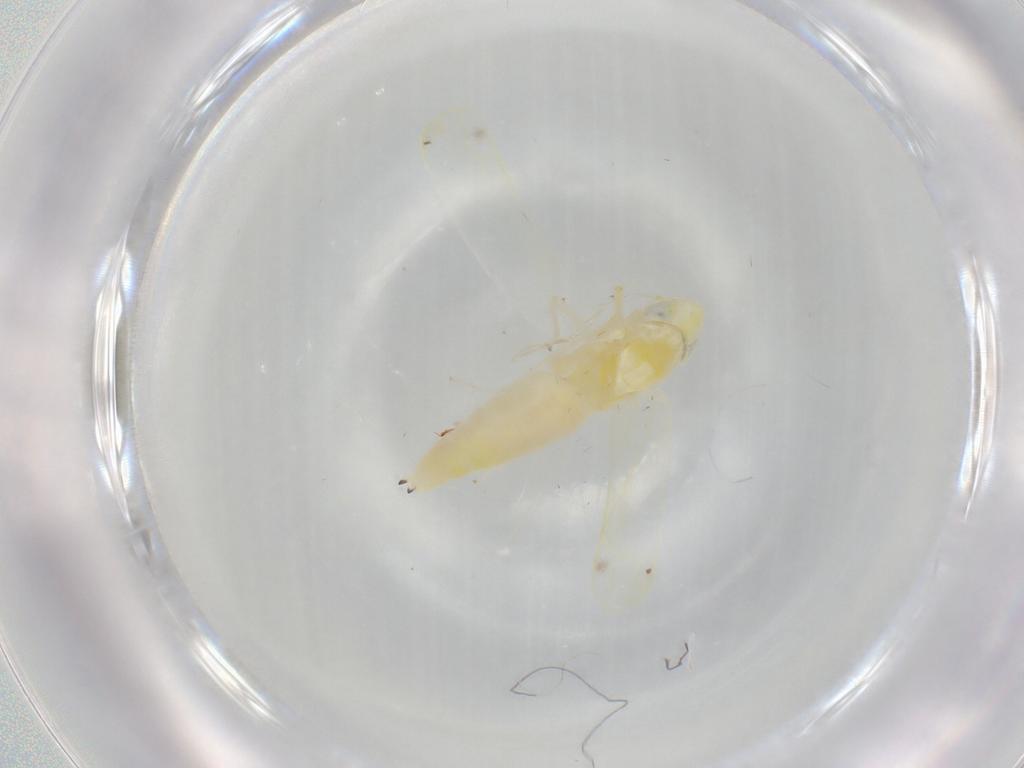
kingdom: Animalia
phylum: Arthropoda
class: Insecta
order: Hemiptera
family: Cicadellidae
